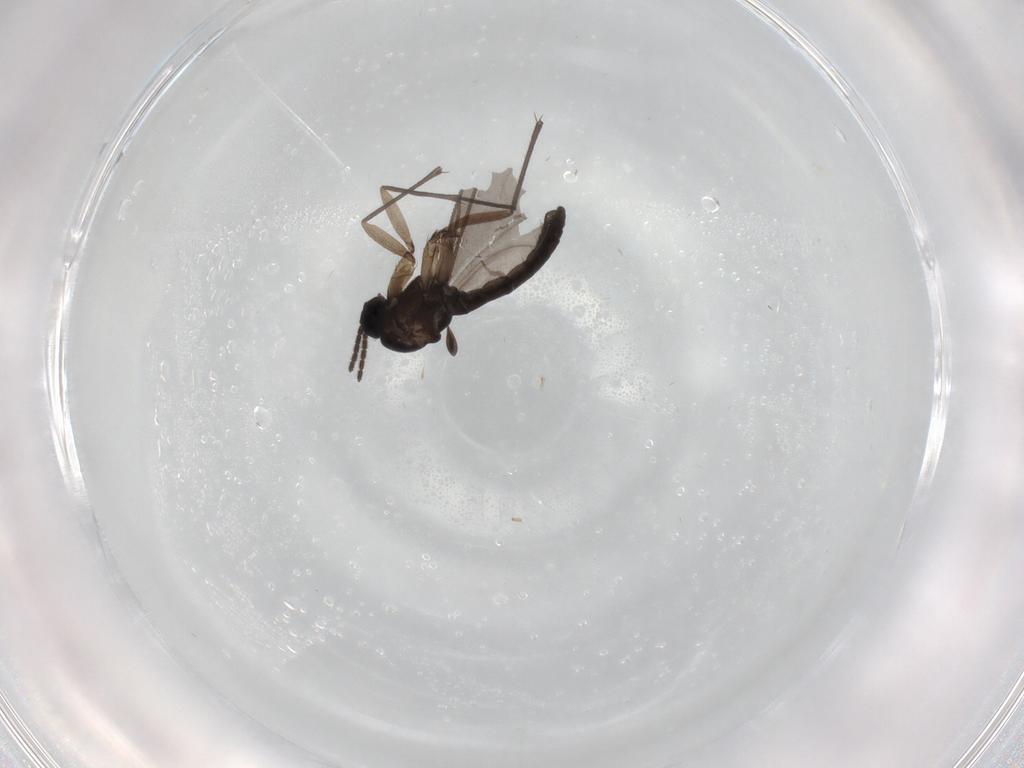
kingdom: Animalia
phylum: Arthropoda
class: Insecta
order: Diptera
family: Sciaridae
